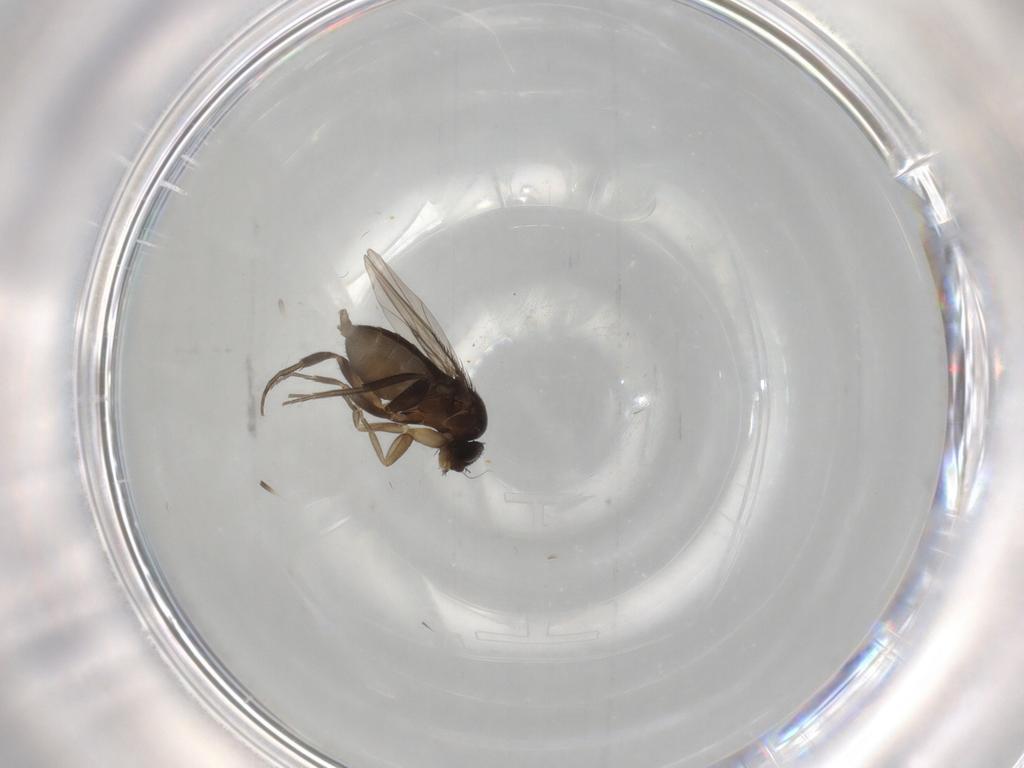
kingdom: Animalia
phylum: Arthropoda
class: Insecta
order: Diptera
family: Phoridae
